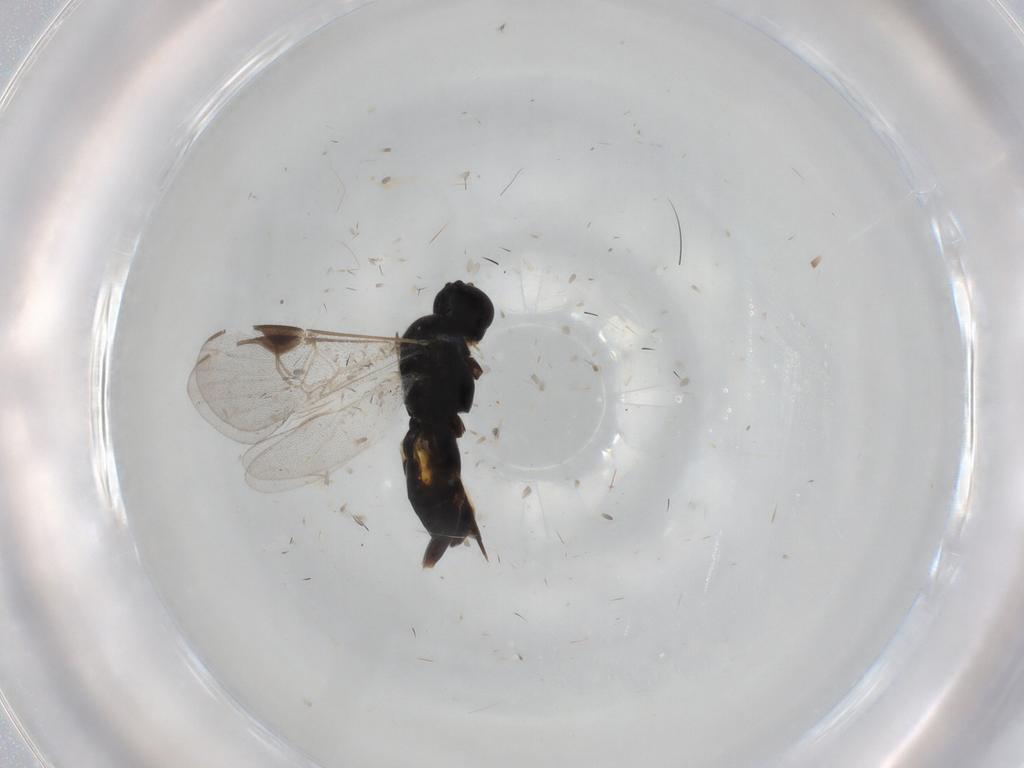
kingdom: Animalia
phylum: Arthropoda
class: Insecta
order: Hymenoptera
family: Braconidae
